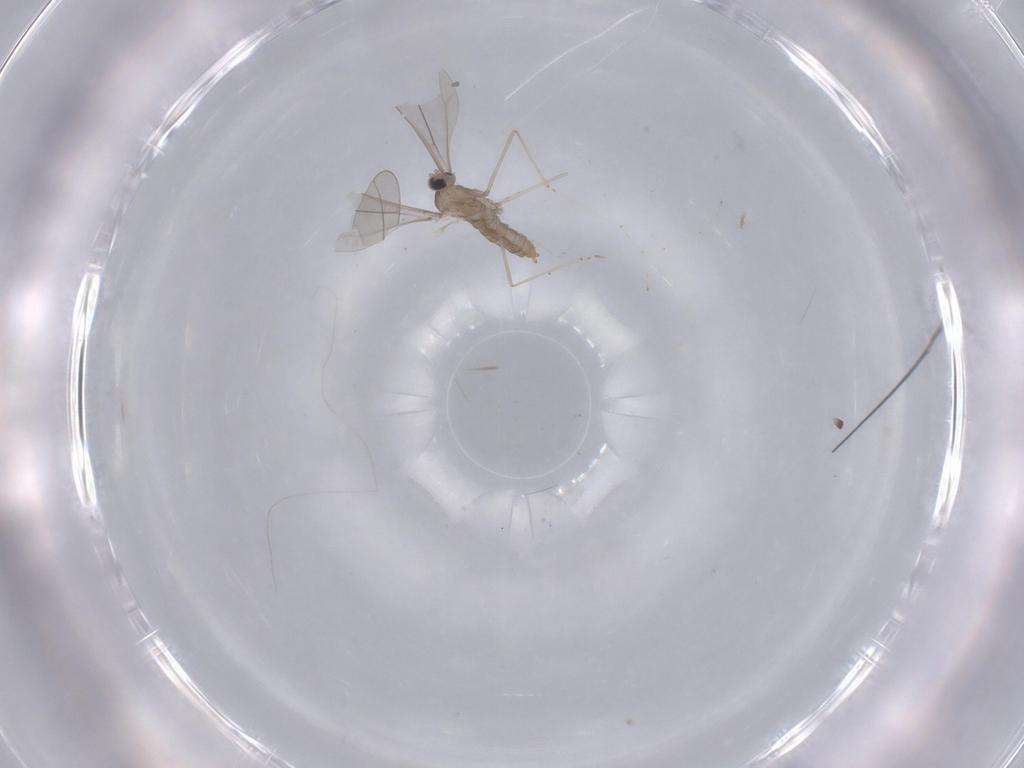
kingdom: Animalia
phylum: Arthropoda
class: Insecta
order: Diptera
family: Cecidomyiidae
